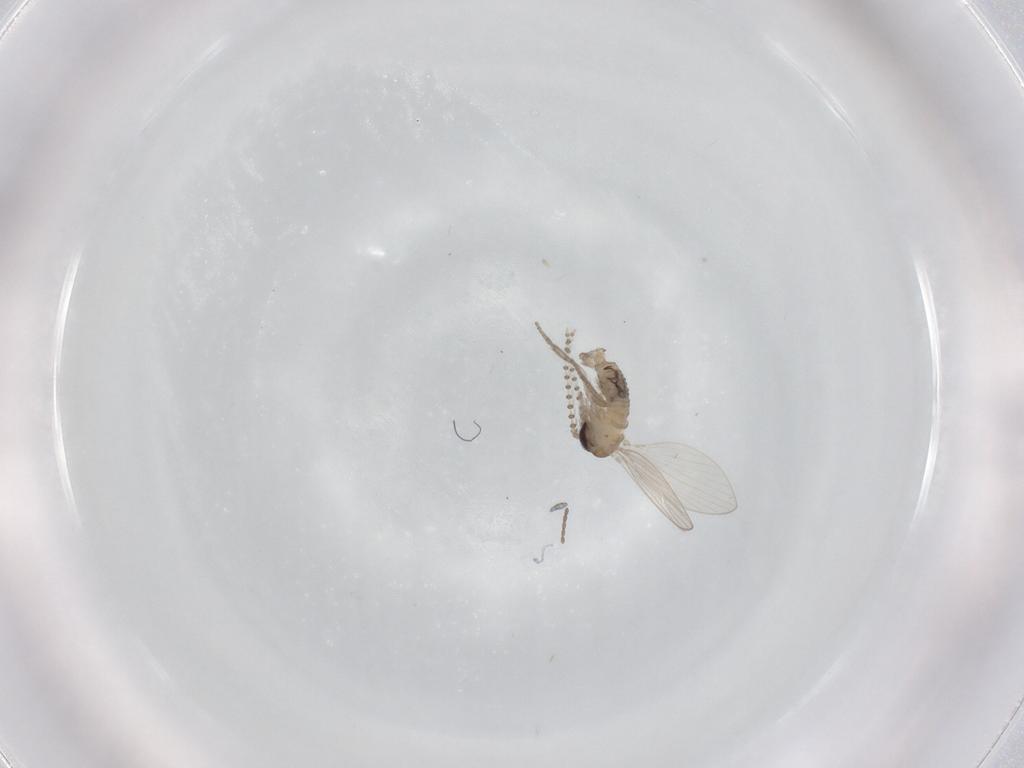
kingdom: Animalia
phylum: Arthropoda
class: Insecta
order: Diptera
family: Psychodidae
